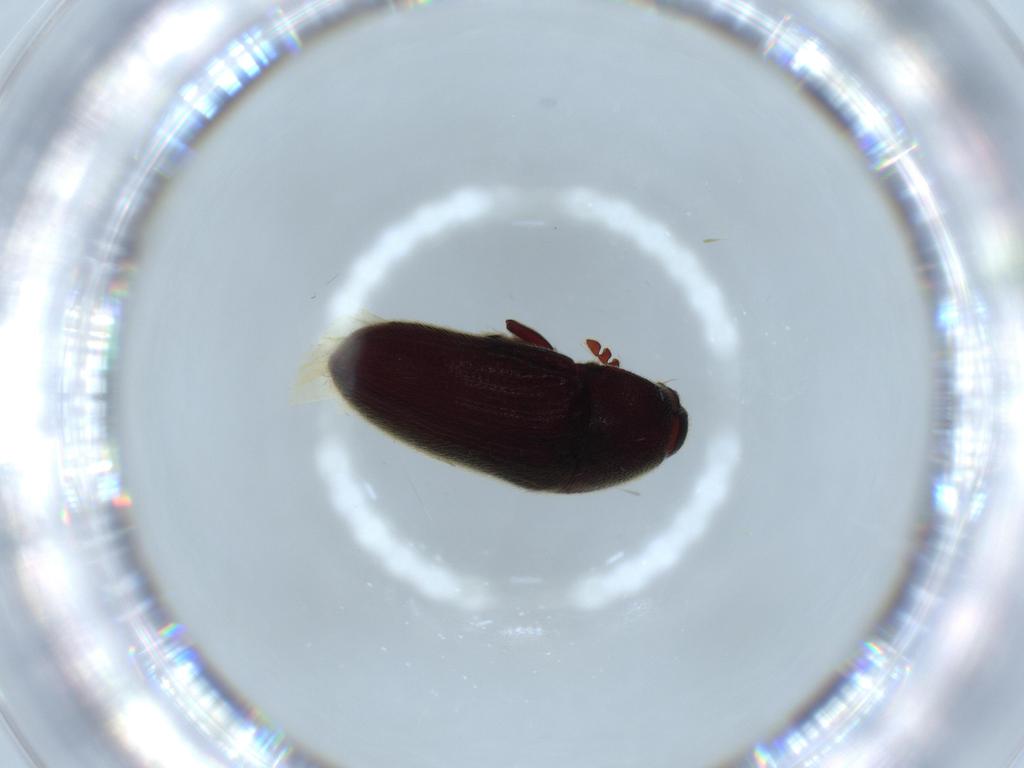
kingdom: Animalia
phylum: Arthropoda
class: Insecta
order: Coleoptera
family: Throscidae
